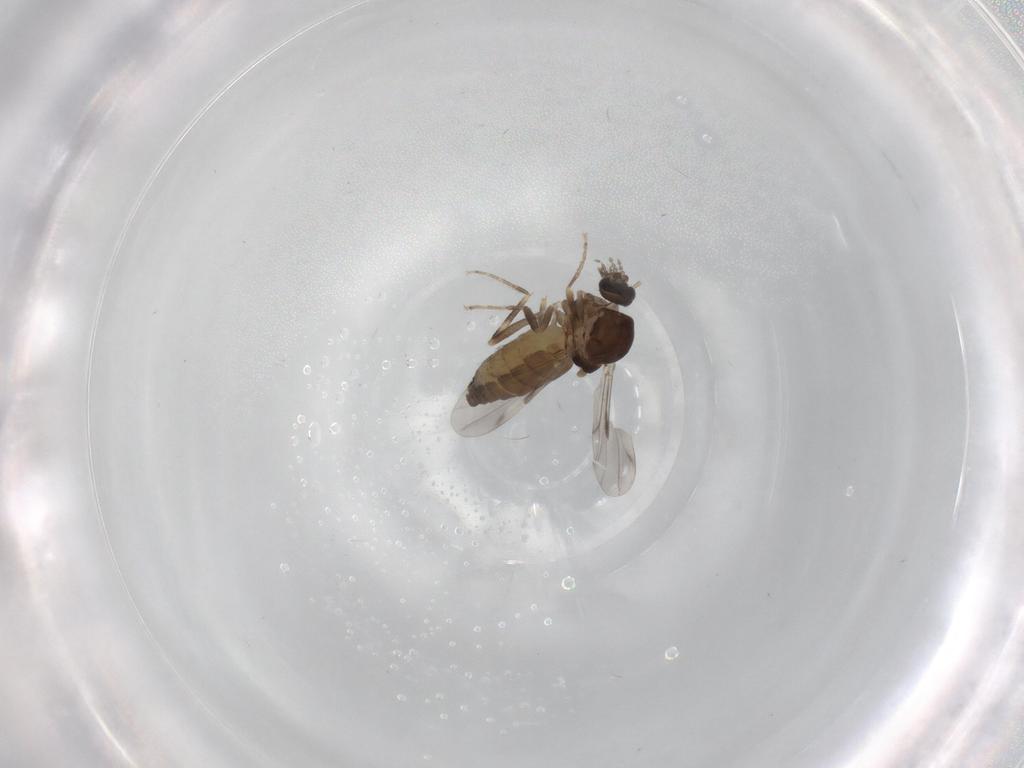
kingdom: Animalia
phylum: Arthropoda
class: Insecta
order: Diptera
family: Ceratopogonidae
